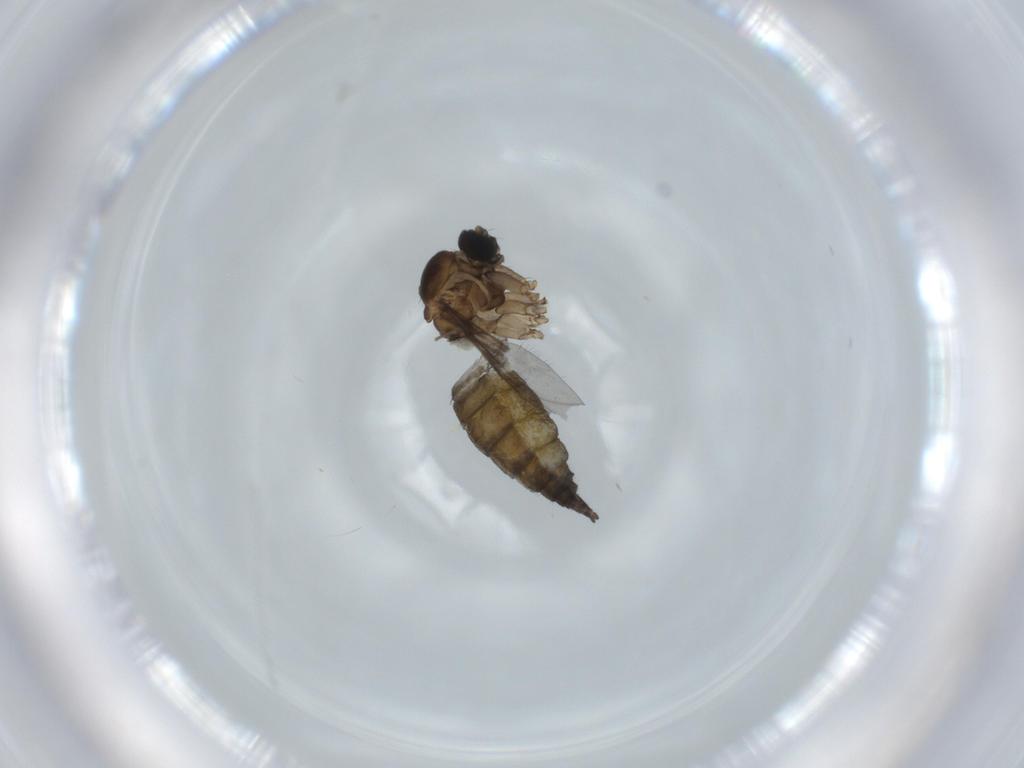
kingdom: Animalia
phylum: Arthropoda
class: Insecta
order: Diptera
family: Sciaridae
